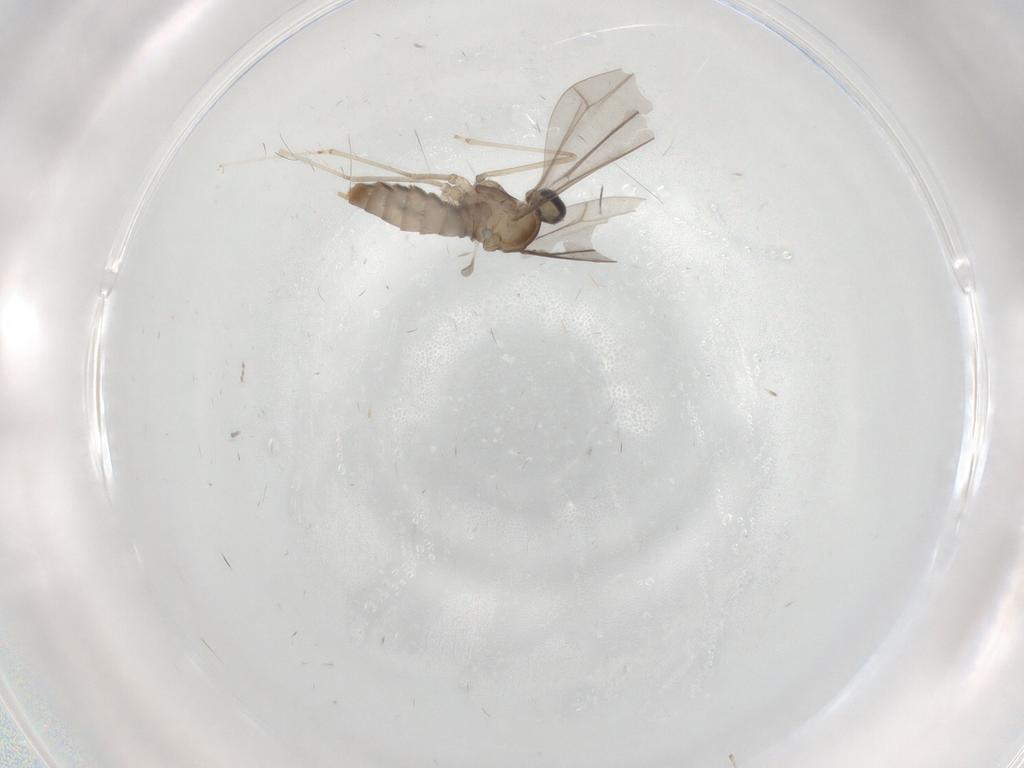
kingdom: Animalia
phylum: Arthropoda
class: Insecta
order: Diptera
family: Cecidomyiidae
